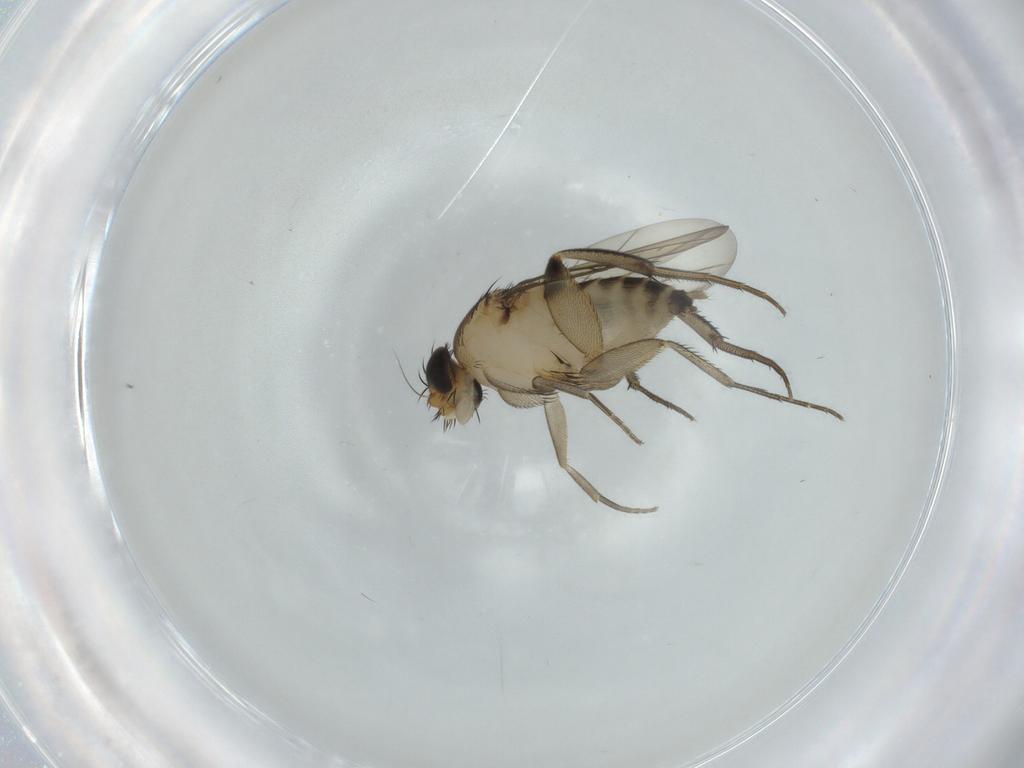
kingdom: Animalia
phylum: Arthropoda
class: Insecta
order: Diptera
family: Phoridae
